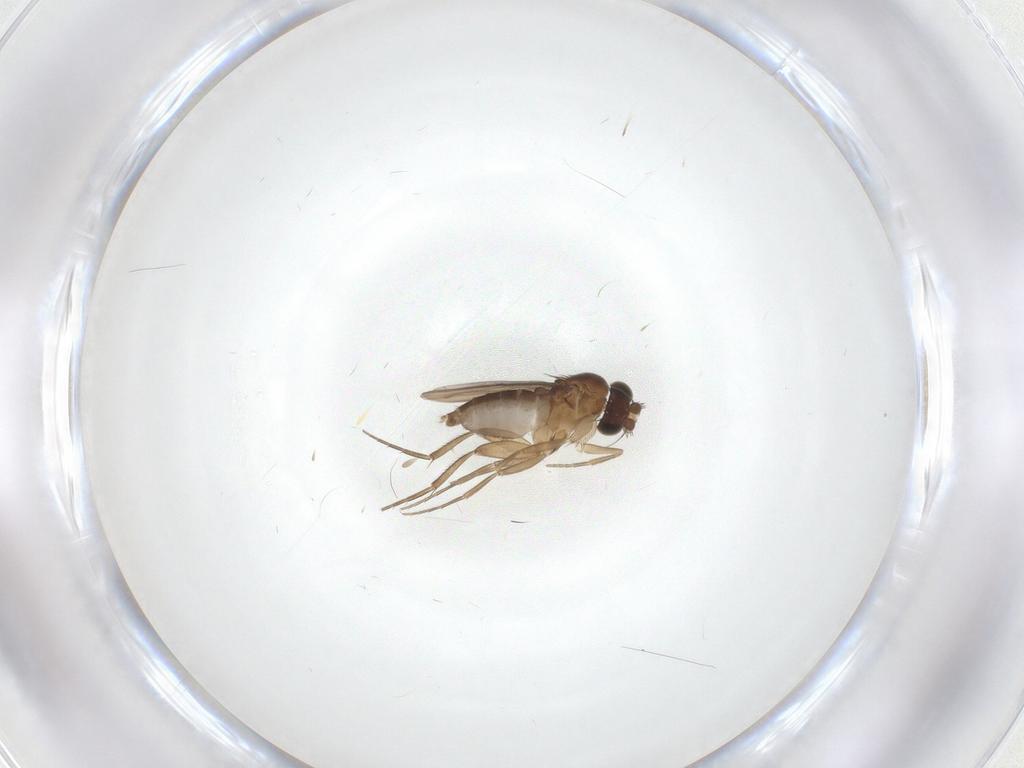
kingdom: Animalia
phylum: Arthropoda
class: Insecta
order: Diptera
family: Phoridae
